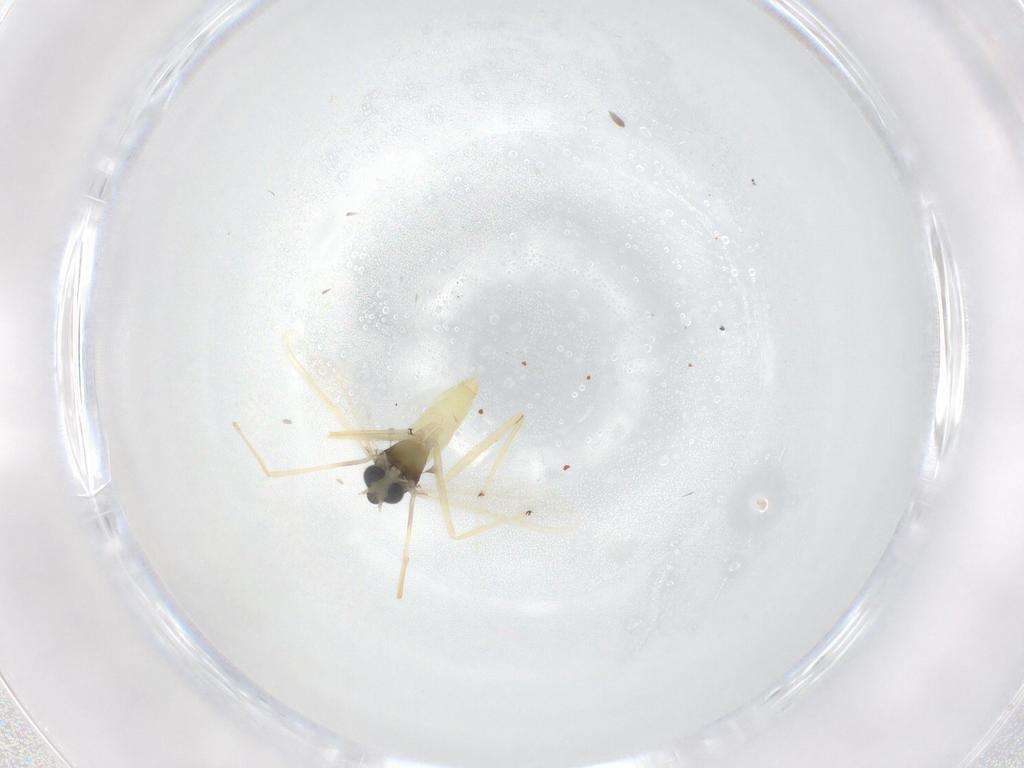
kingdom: Animalia
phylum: Arthropoda
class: Insecta
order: Diptera
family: Chironomidae
